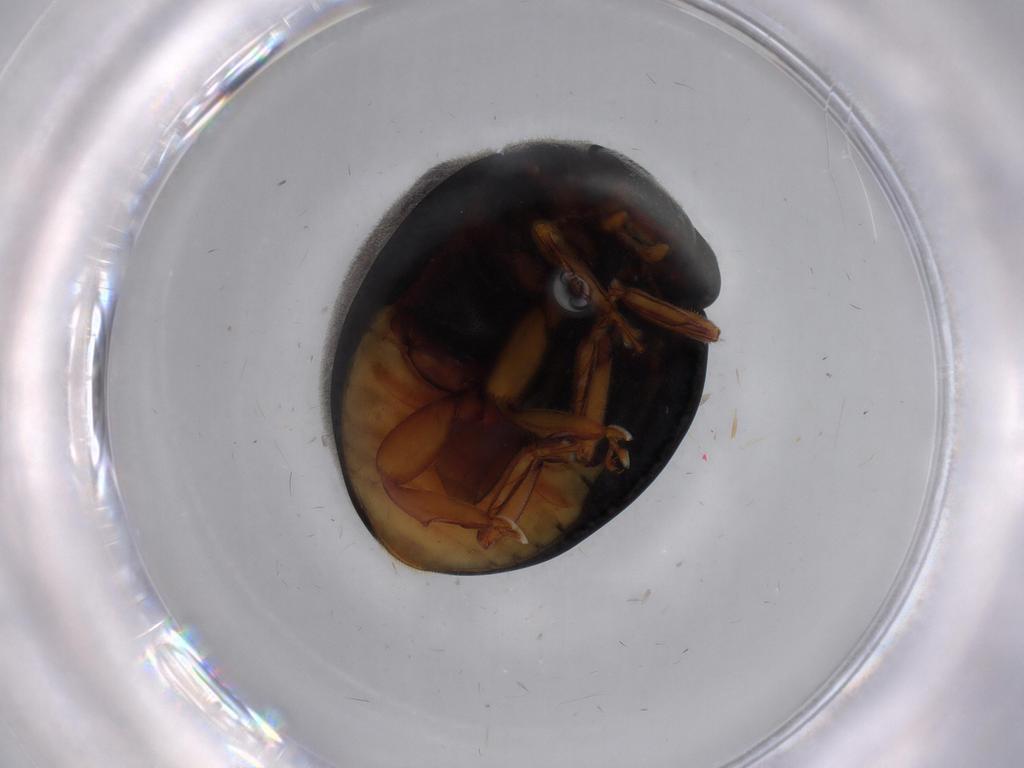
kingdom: Animalia
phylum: Arthropoda
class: Insecta
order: Coleoptera
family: Coccinellidae
